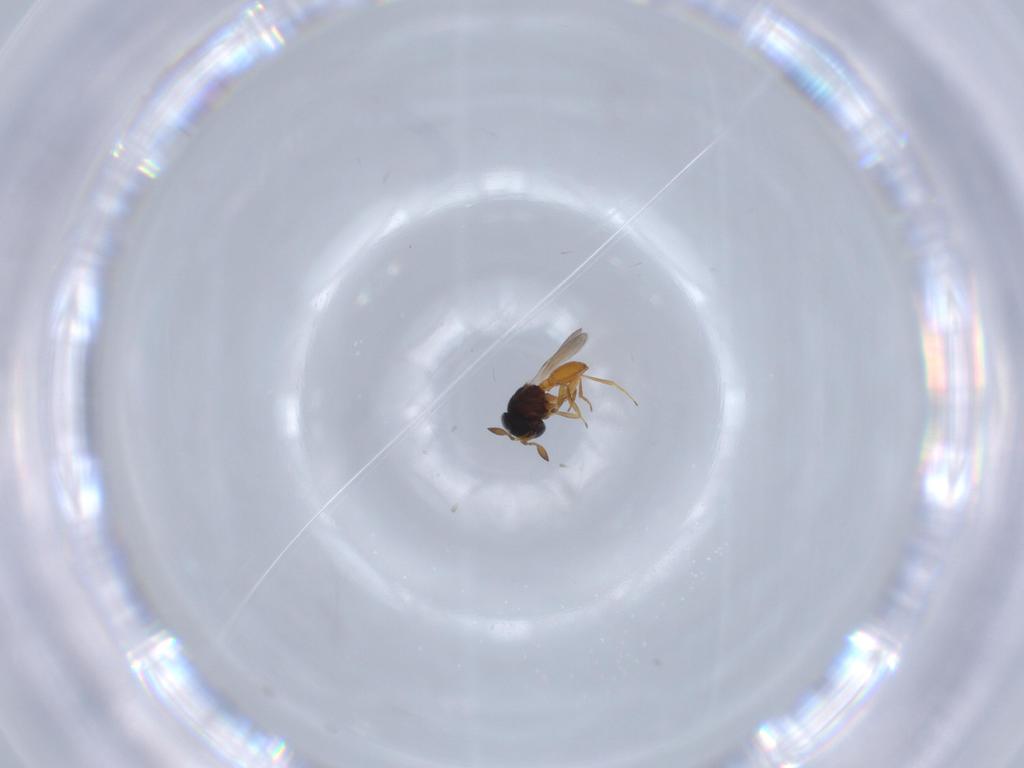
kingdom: Animalia
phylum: Arthropoda
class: Insecta
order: Hymenoptera
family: Scelionidae
